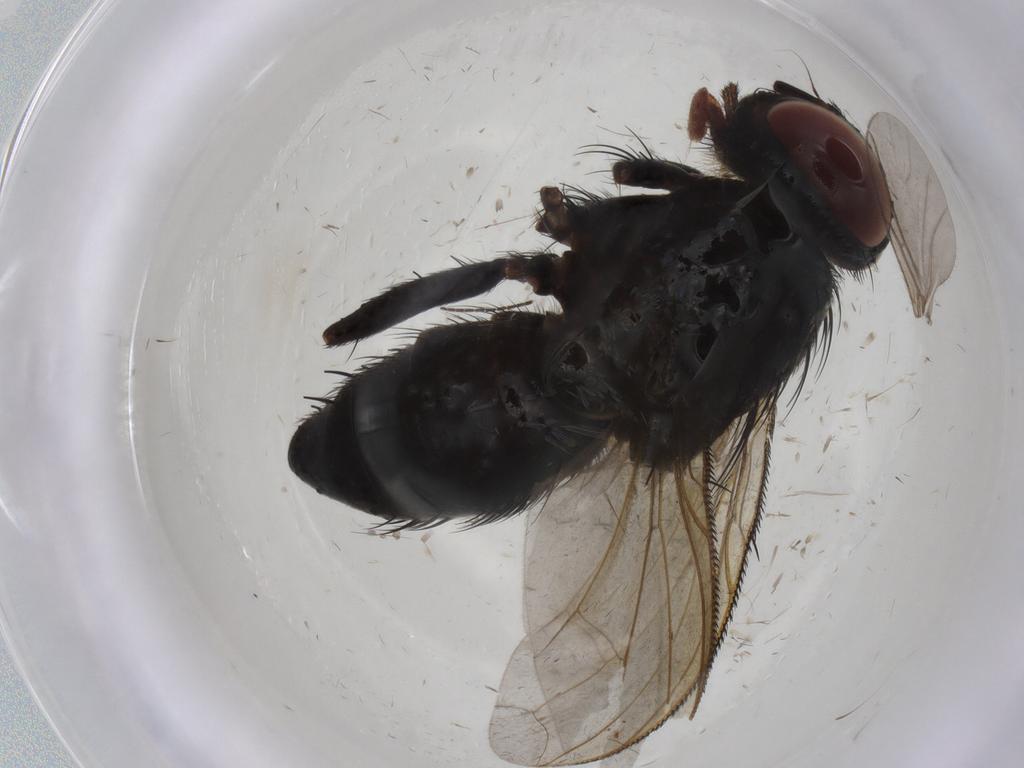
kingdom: Animalia
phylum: Arthropoda
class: Insecta
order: Diptera
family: Tachinidae
